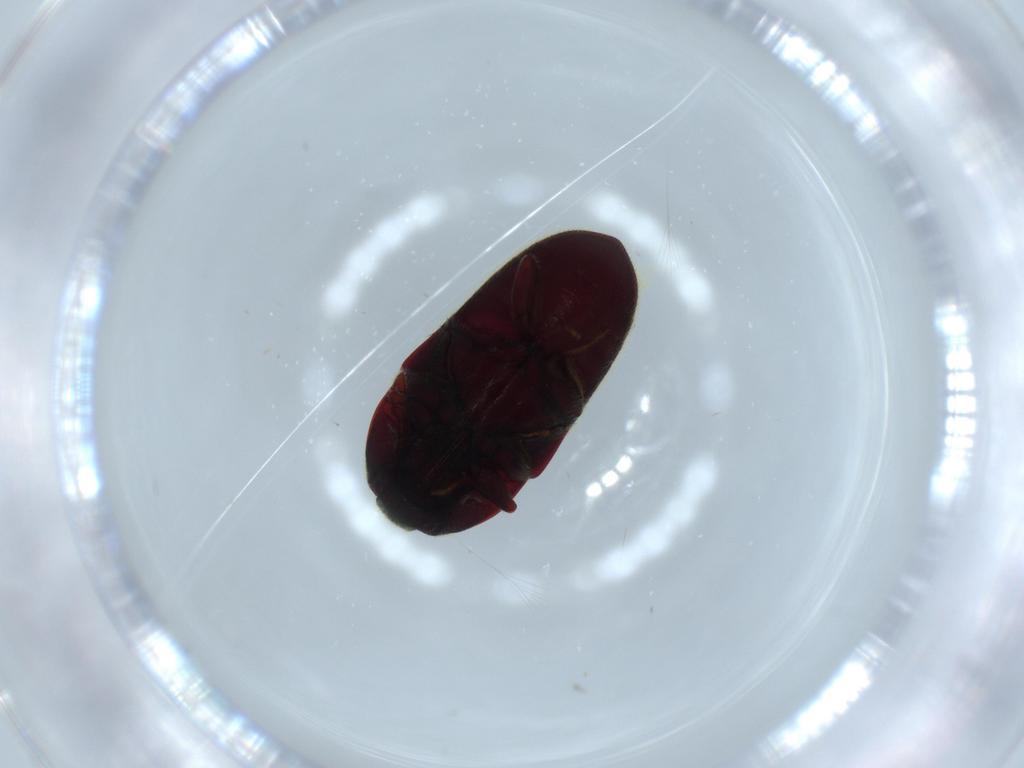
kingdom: Animalia
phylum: Arthropoda
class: Insecta
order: Coleoptera
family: Throscidae
